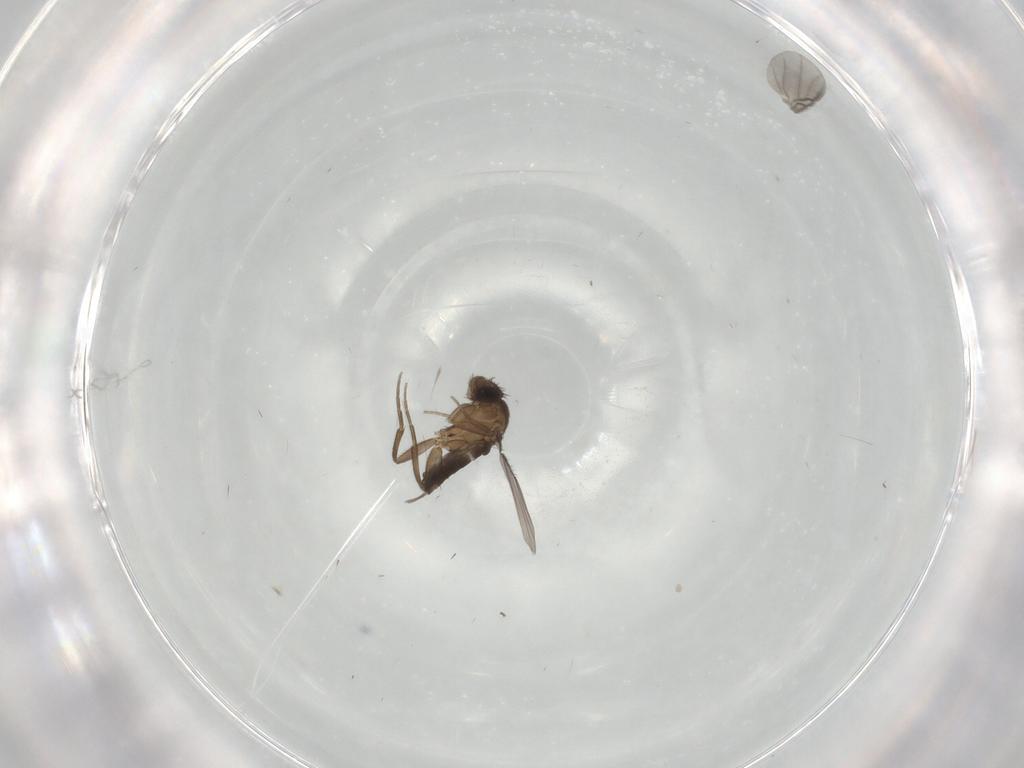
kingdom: Animalia
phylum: Arthropoda
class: Insecta
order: Diptera
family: Phoridae
